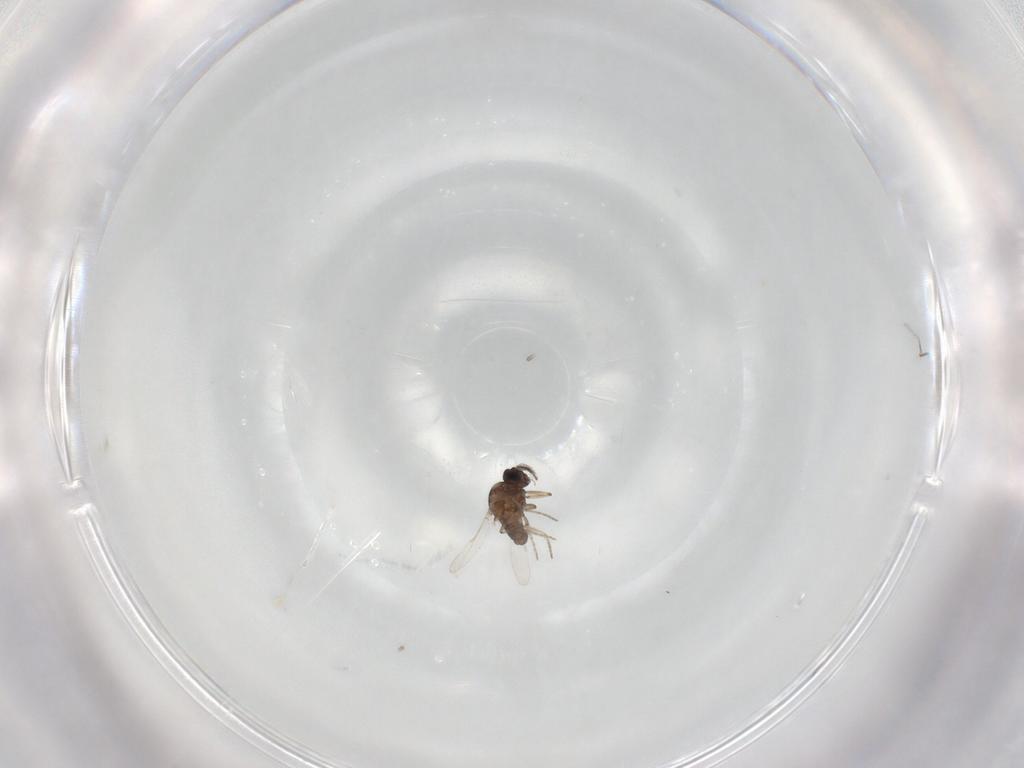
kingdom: Animalia
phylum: Arthropoda
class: Insecta
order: Diptera
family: Ceratopogonidae
